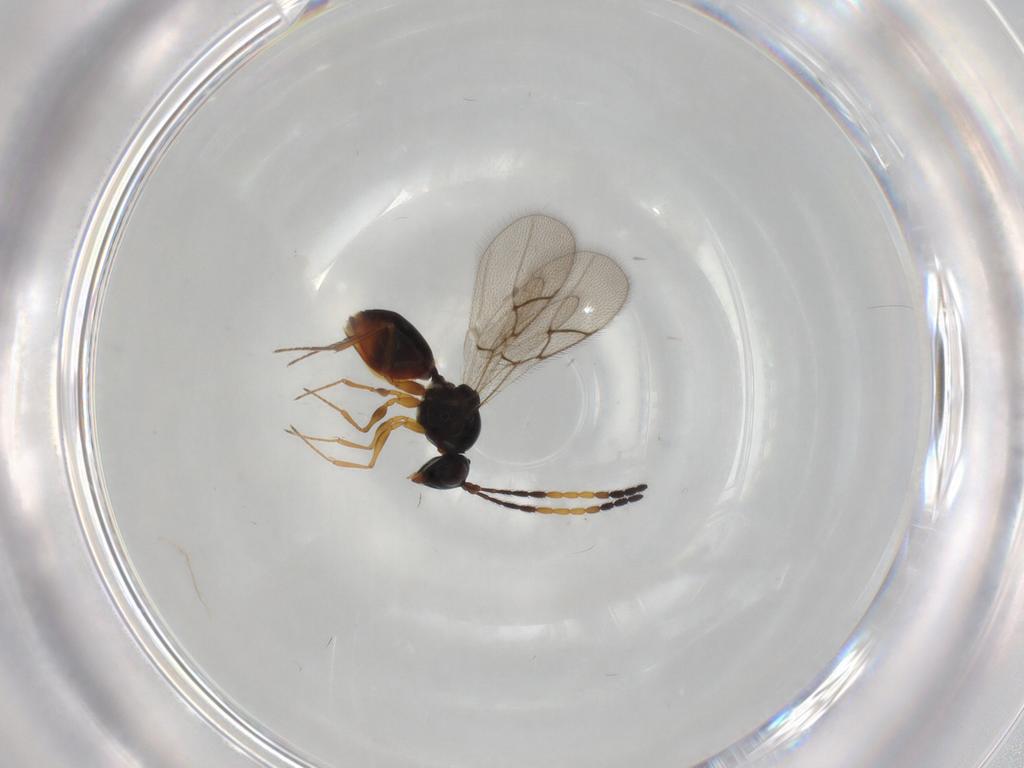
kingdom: Animalia
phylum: Arthropoda
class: Insecta
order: Hymenoptera
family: Figitidae
